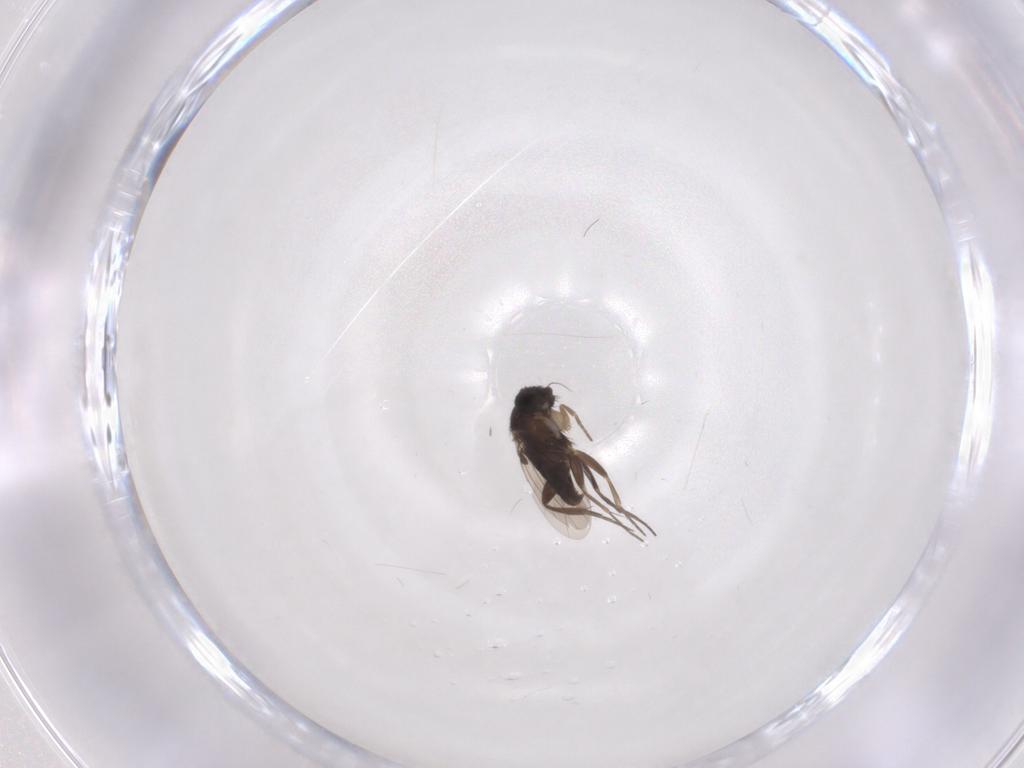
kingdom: Animalia
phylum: Arthropoda
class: Insecta
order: Diptera
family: Phoridae
